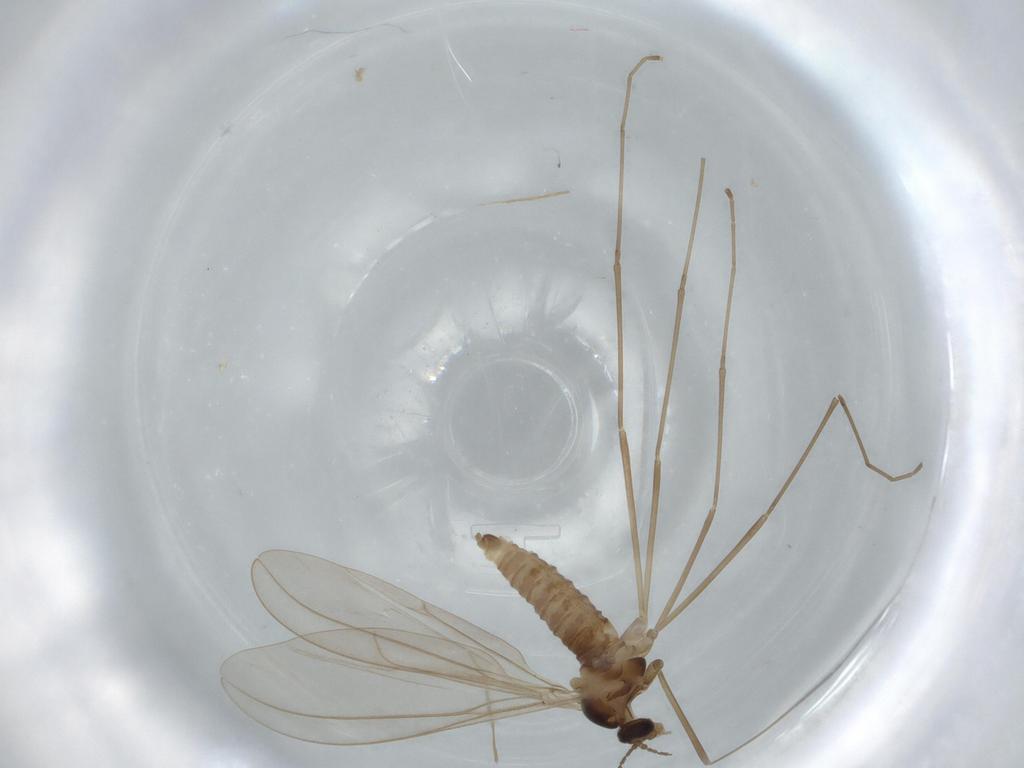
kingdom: Animalia
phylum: Arthropoda
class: Insecta
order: Diptera
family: Cecidomyiidae
